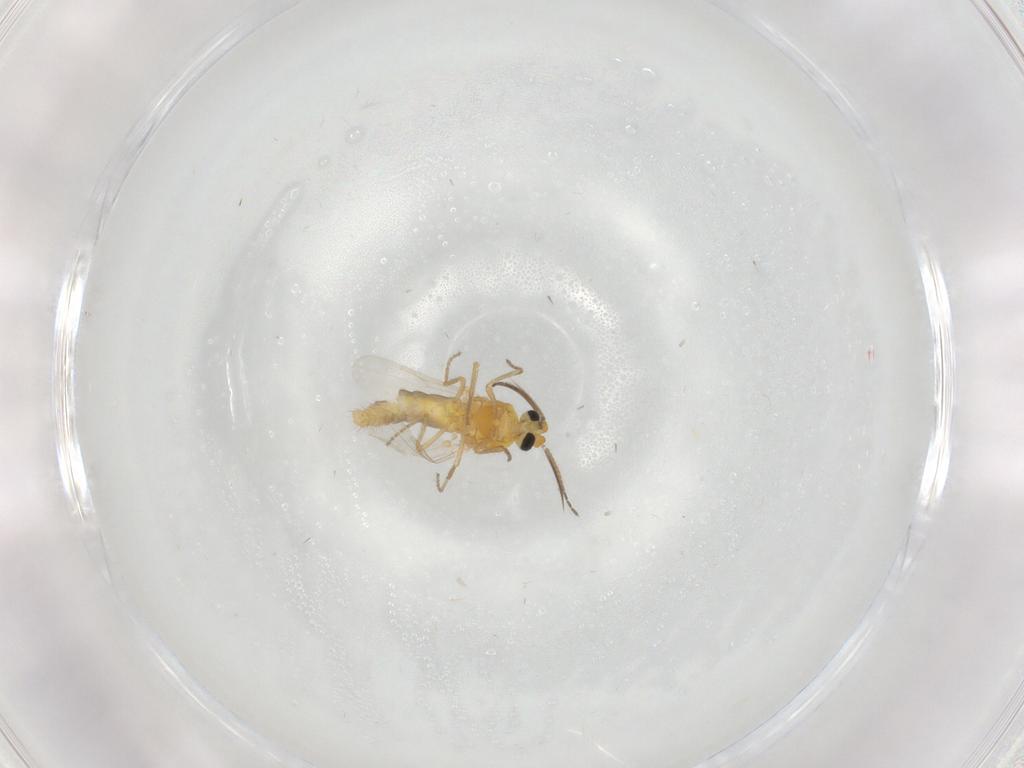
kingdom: Animalia
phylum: Arthropoda
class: Insecta
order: Diptera
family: Ceratopogonidae
